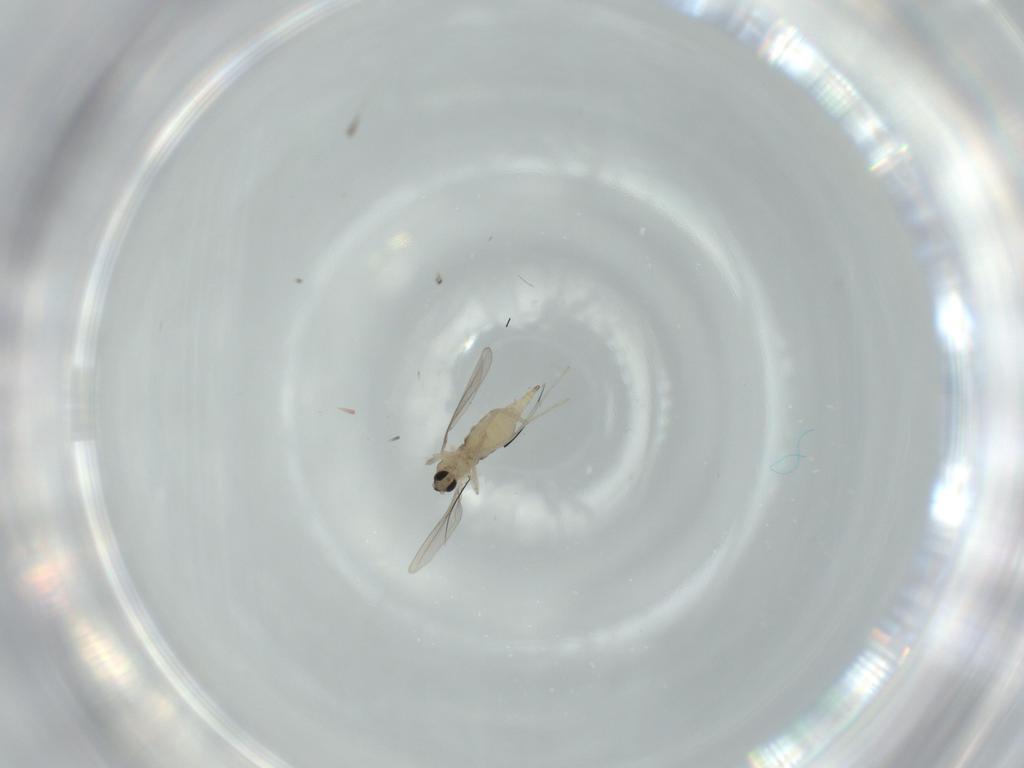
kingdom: Animalia
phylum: Arthropoda
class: Insecta
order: Diptera
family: Cecidomyiidae
